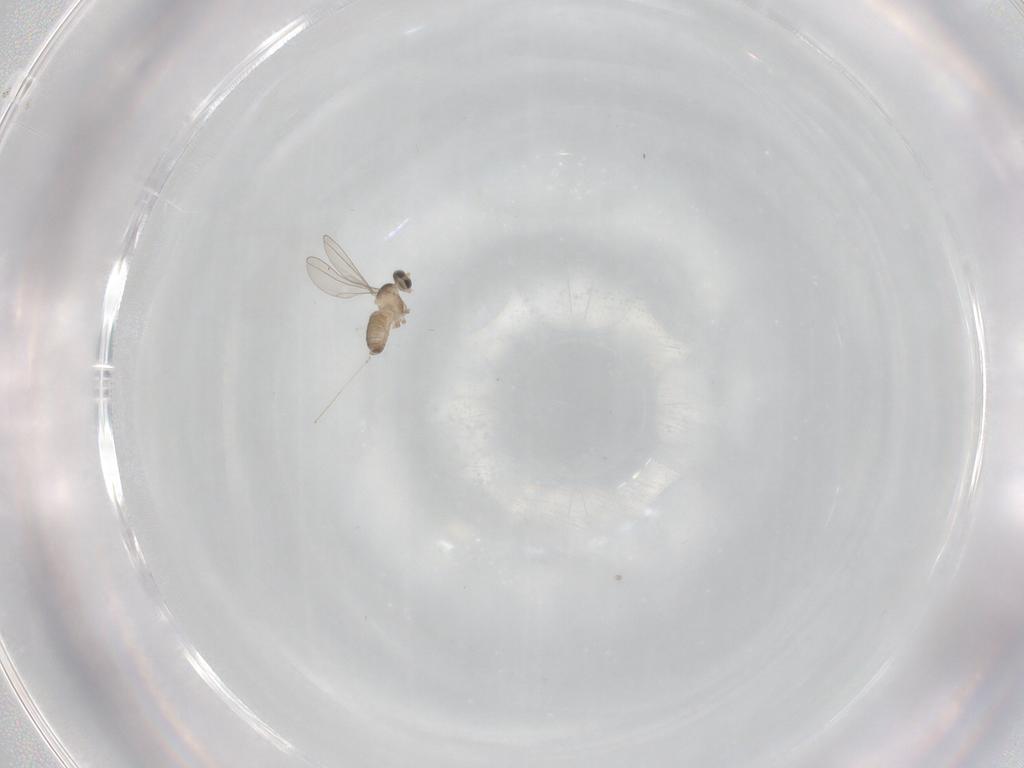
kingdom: Animalia
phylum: Arthropoda
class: Insecta
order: Diptera
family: Cecidomyiidae
